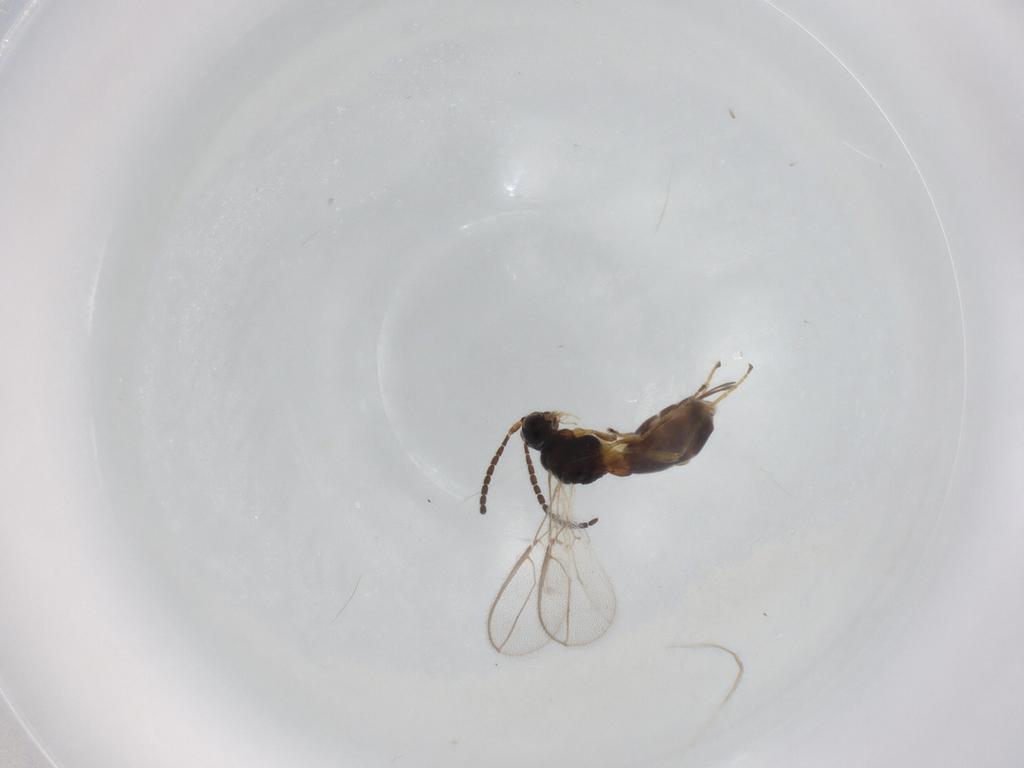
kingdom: Animalia
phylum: Arthropoda
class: Insecta
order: Hymenoptera
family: Braconidae
